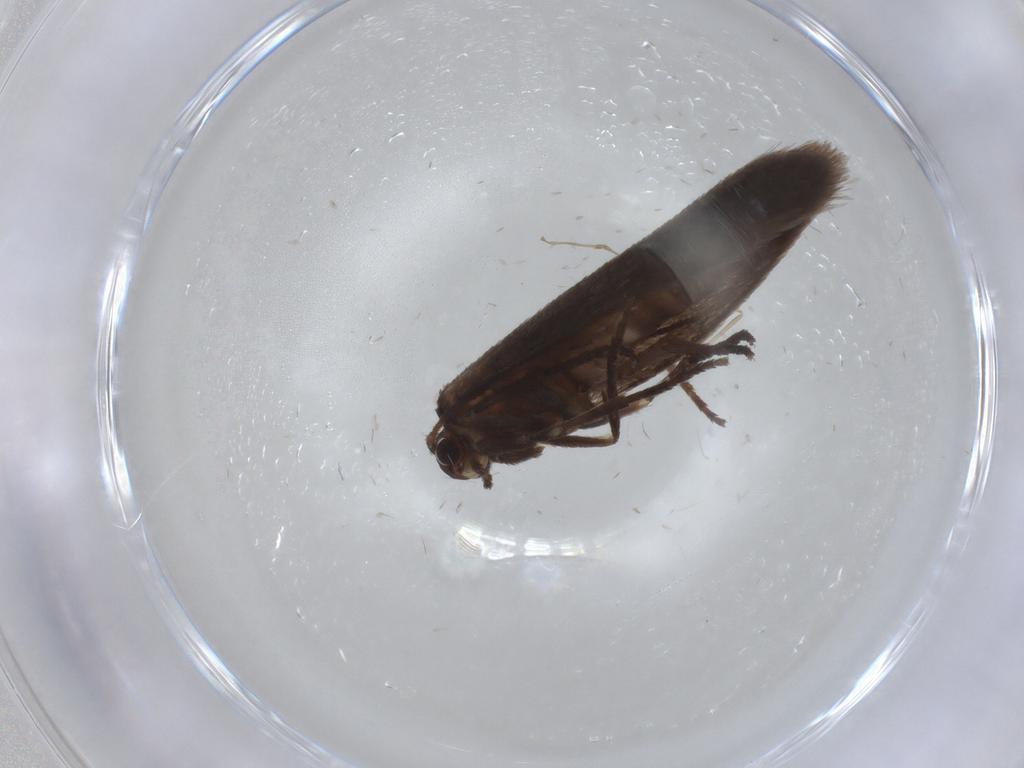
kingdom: Animalia
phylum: Arthropoda
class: Insecta
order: Lepidoptera
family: Limacodidae
